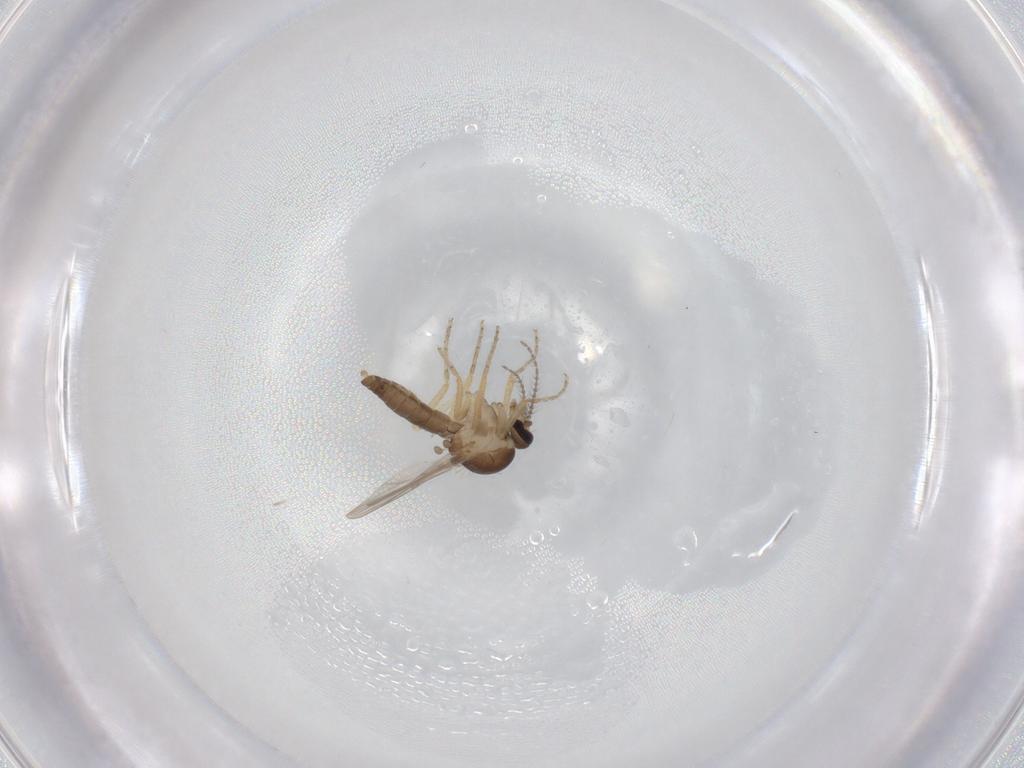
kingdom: Animalia
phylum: Arthropoda
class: Insecta
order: Diptera
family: Ceratopogonidae
